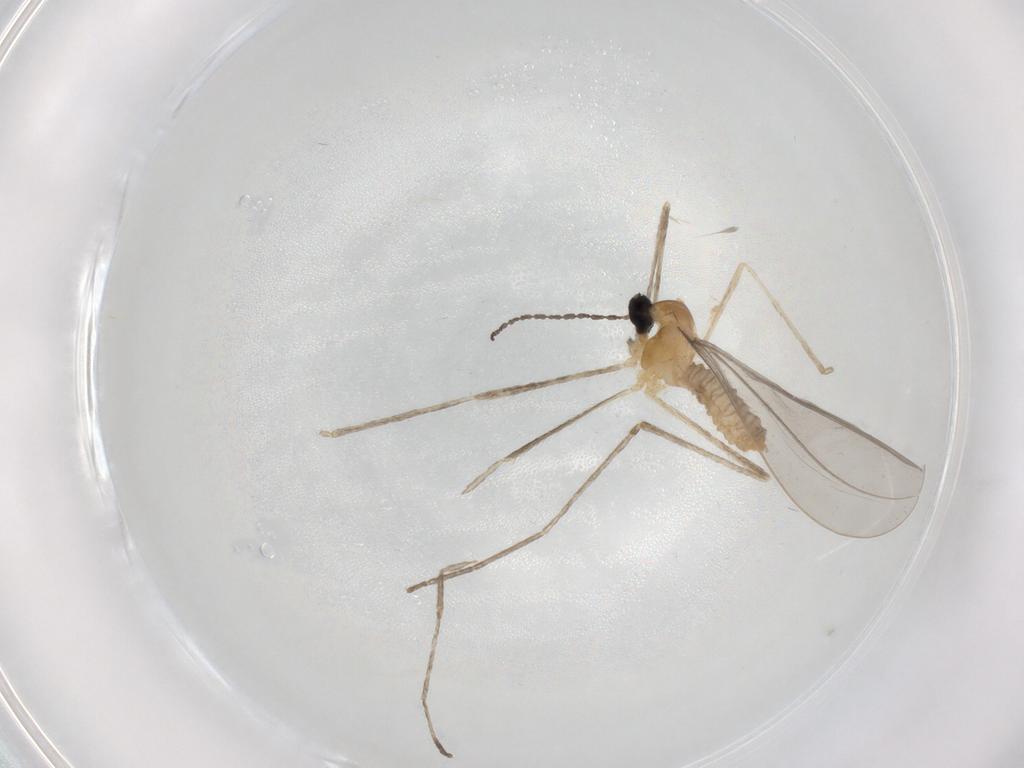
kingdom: Animalia
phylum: Arthropoda
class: Insecta
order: Diptera
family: Cecidomyiidae
